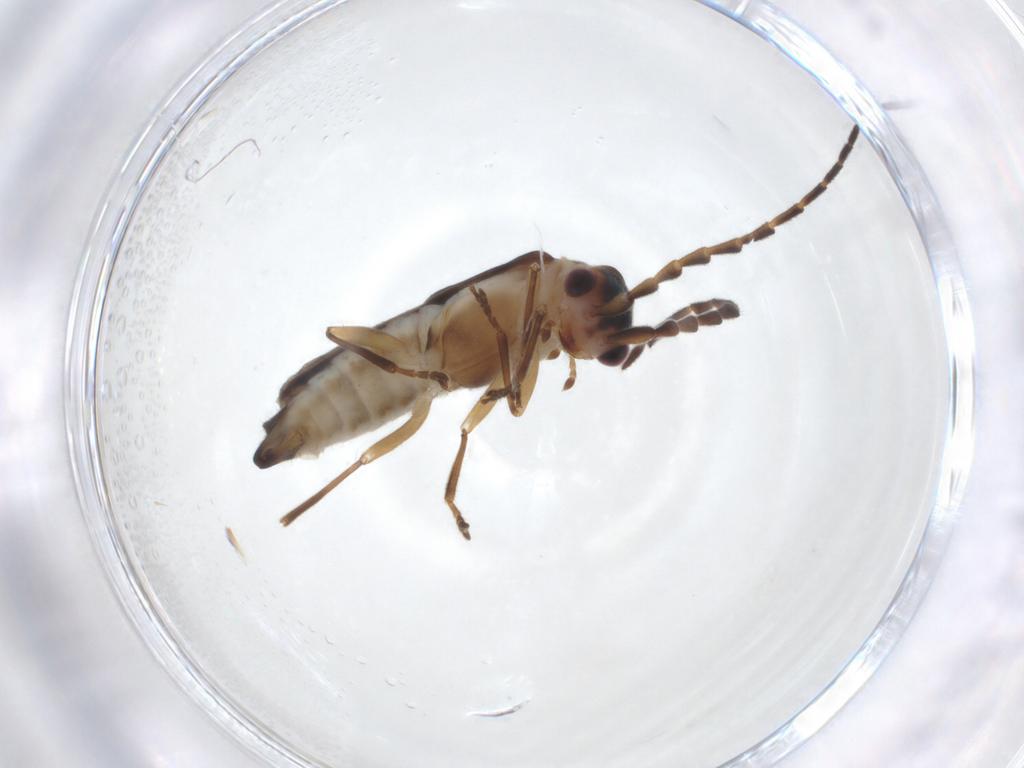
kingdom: Animalia
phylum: Arthropoda
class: Insecta
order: Coleoptera
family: Cantharidae
